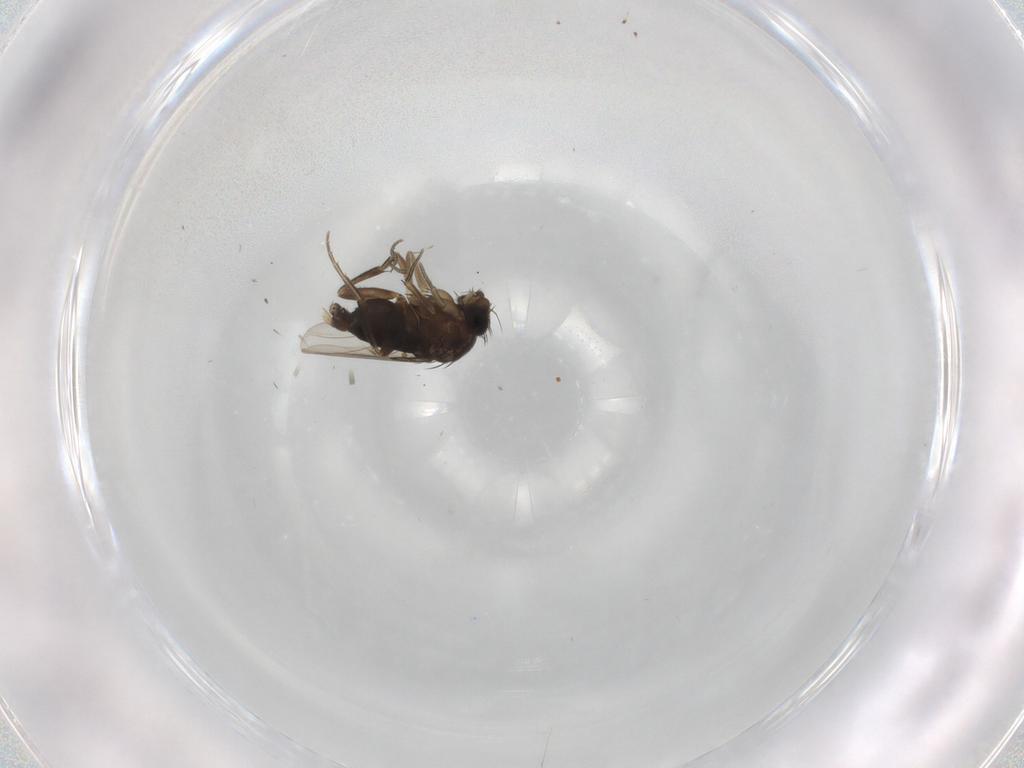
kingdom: Animalia
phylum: Arthropoda
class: Insecta
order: Diptera
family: Phoridae
